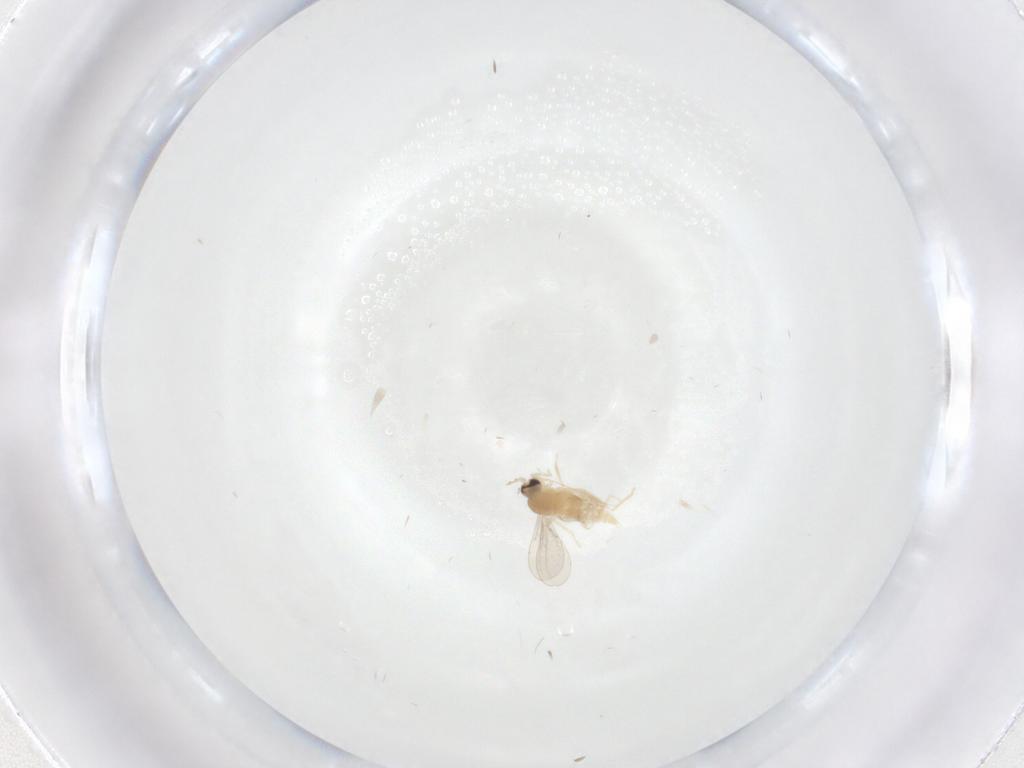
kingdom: Animalia
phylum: Arthropoda
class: Insecta
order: Diptera
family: Cecidomyiidae
